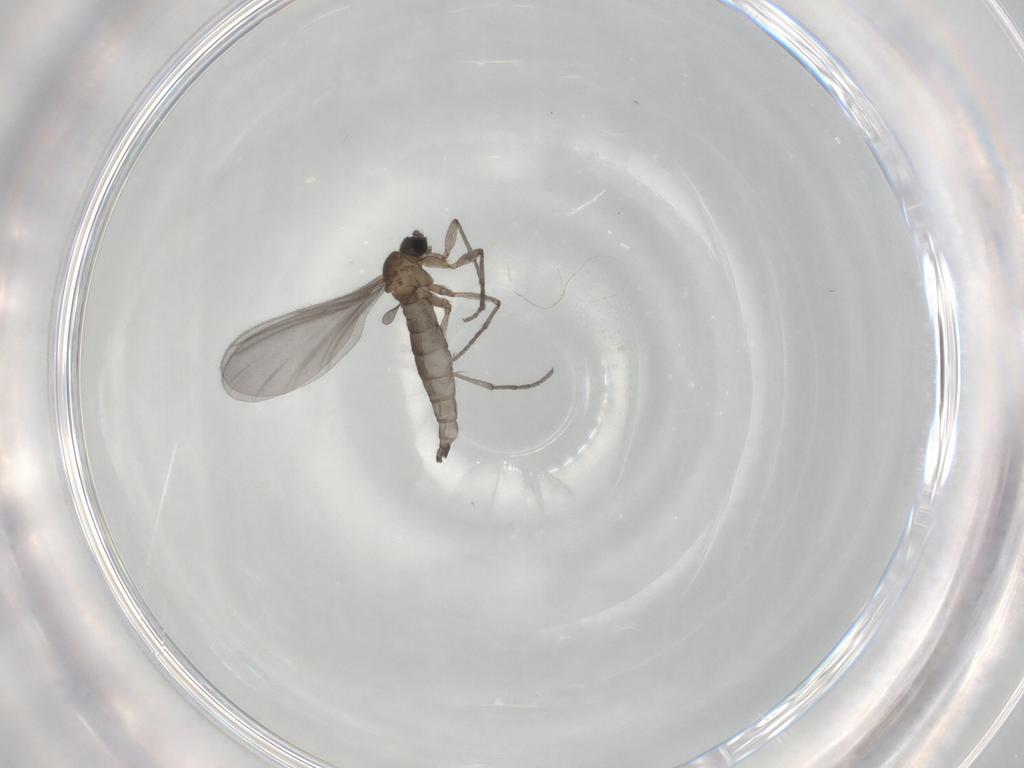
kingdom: Animalia
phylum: Arthropoda
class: Insecta
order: Diptera
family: Sciaridae
